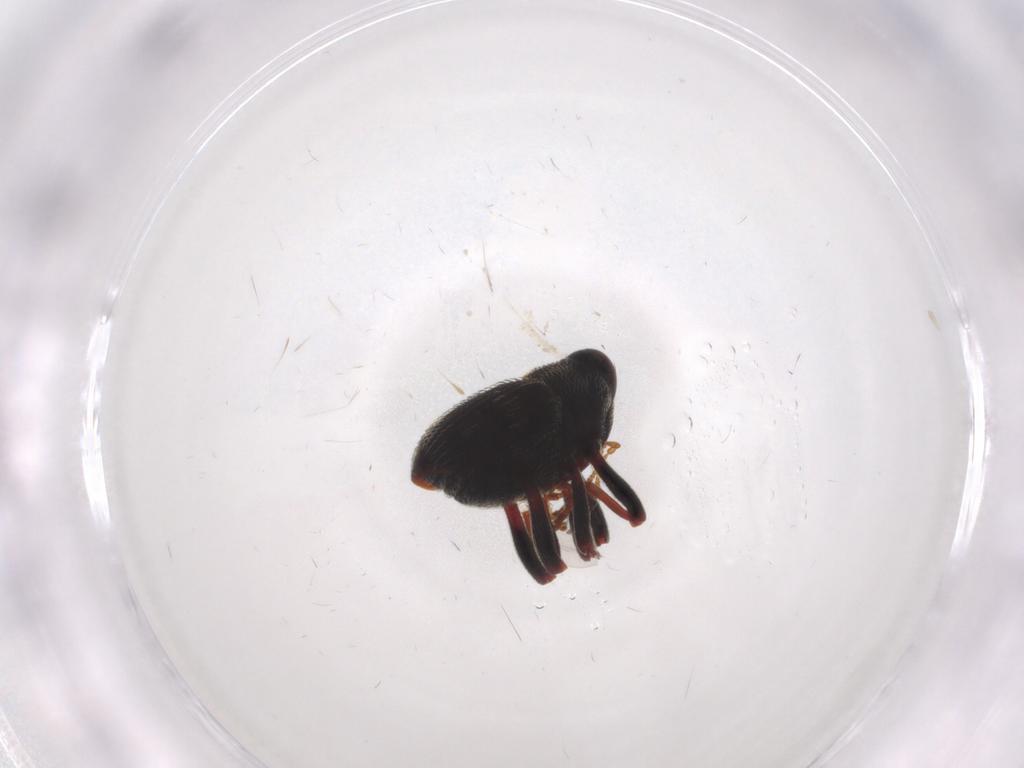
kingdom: Animalia
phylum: Arthropoda
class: Insecta
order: Coleoptera
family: Curculionidae
